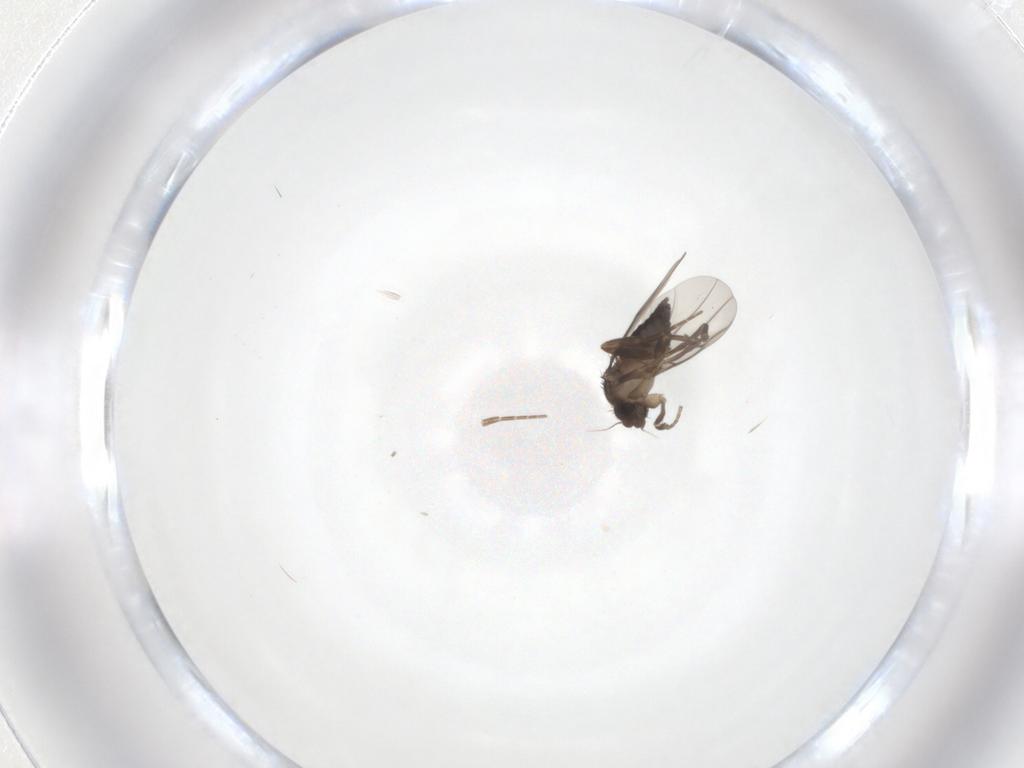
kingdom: Animalia
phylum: Arthropoda
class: Insecta
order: Diptera
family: Phoridae
